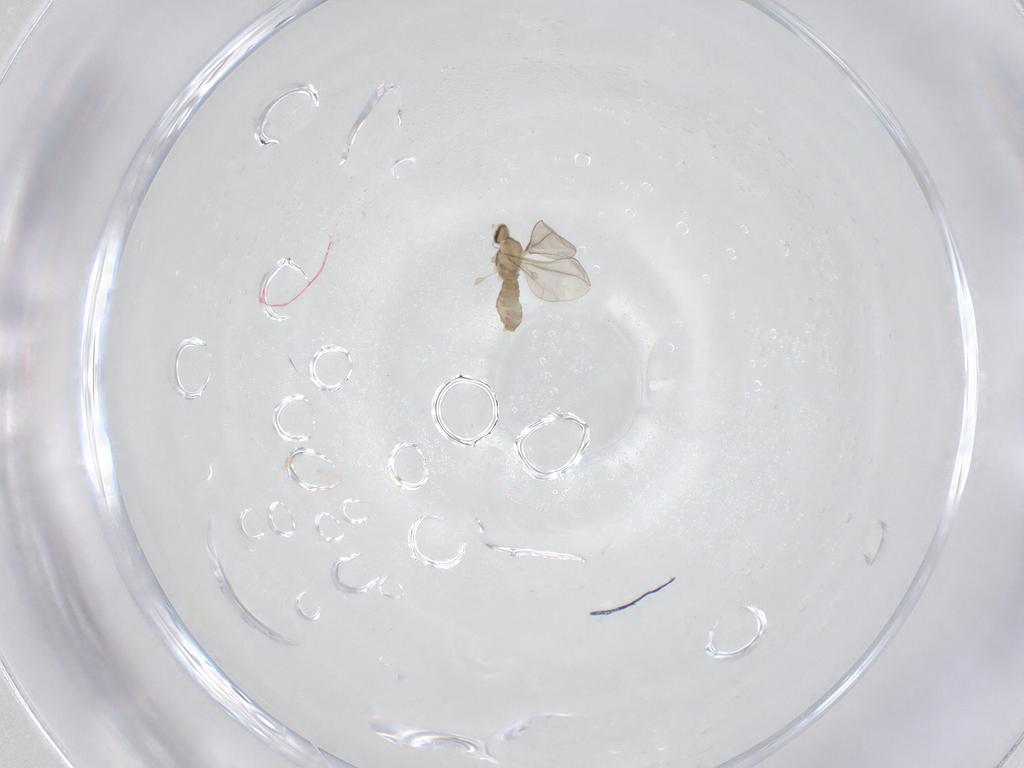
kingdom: Animalia
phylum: Arthropoda
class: Insecta
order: Diptera
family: Cecidomyiidae
